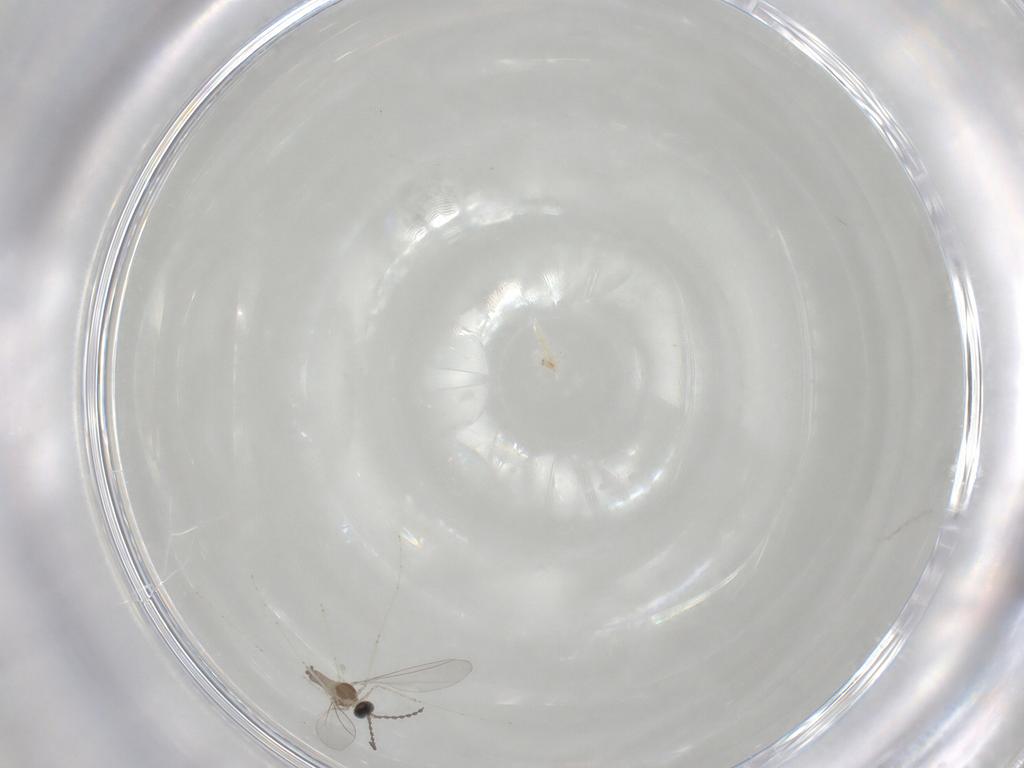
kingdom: Animalia
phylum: Arthropoda
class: Insecta
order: Diptera
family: Cecidomyiidae
